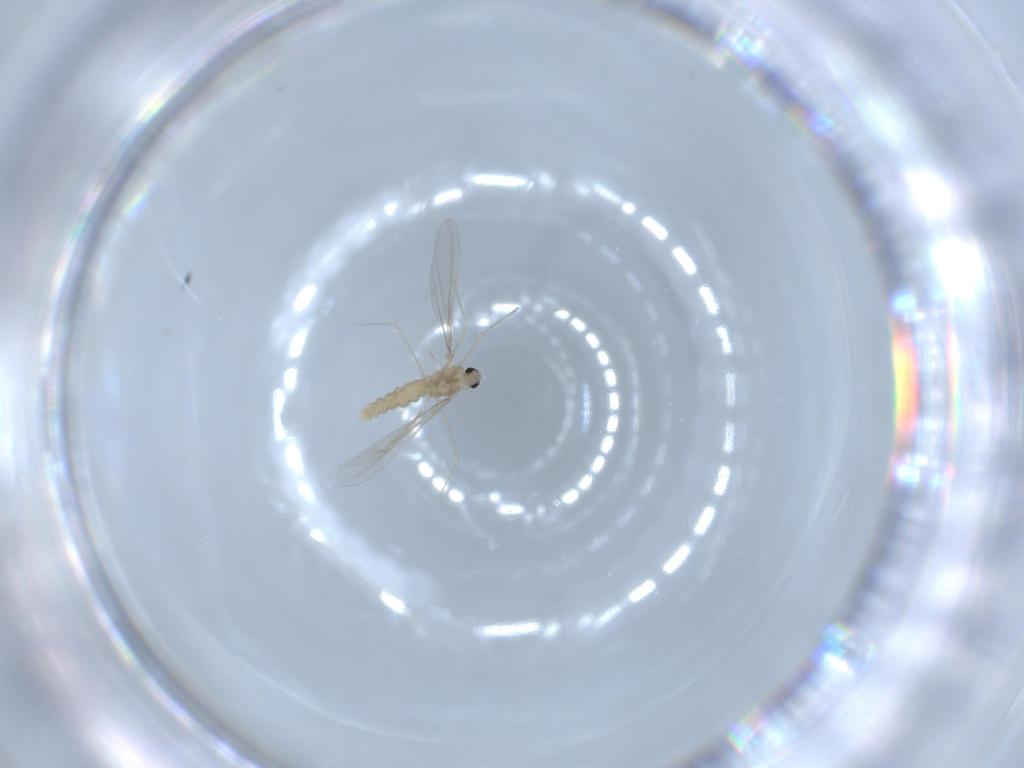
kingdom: Animalia
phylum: Arthropoda
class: Insecta
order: Diptera
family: Cecidomyiidae
